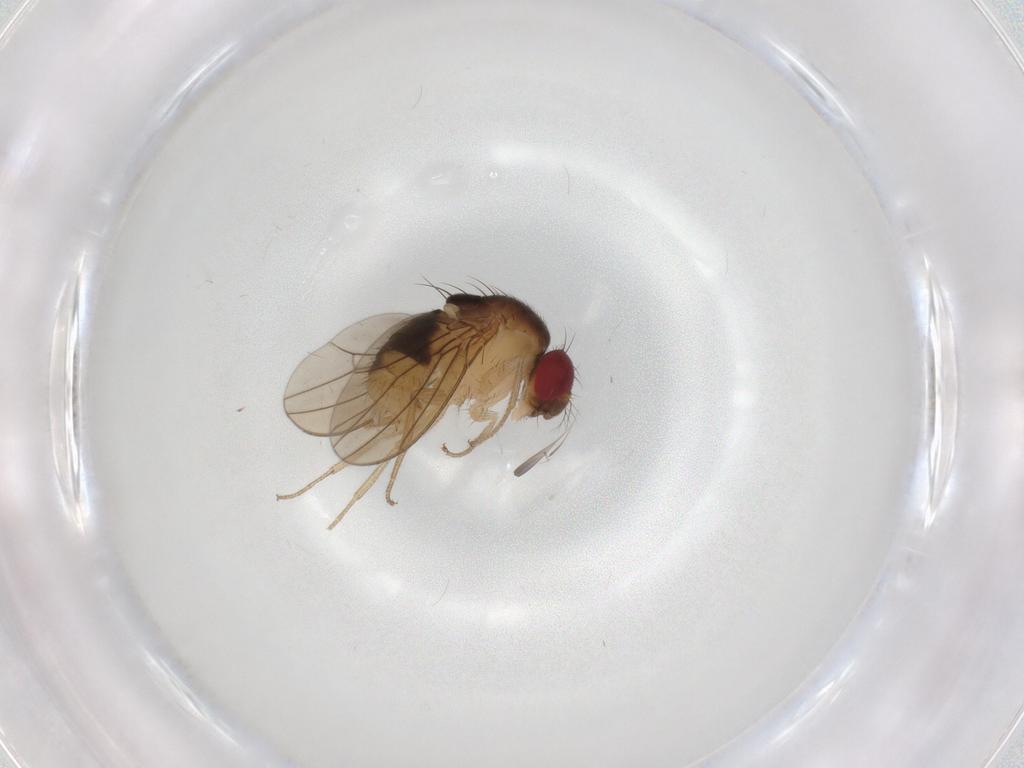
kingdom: Animalia
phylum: Arthropoda
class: Insecta
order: Diptera
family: Drosophilidae
